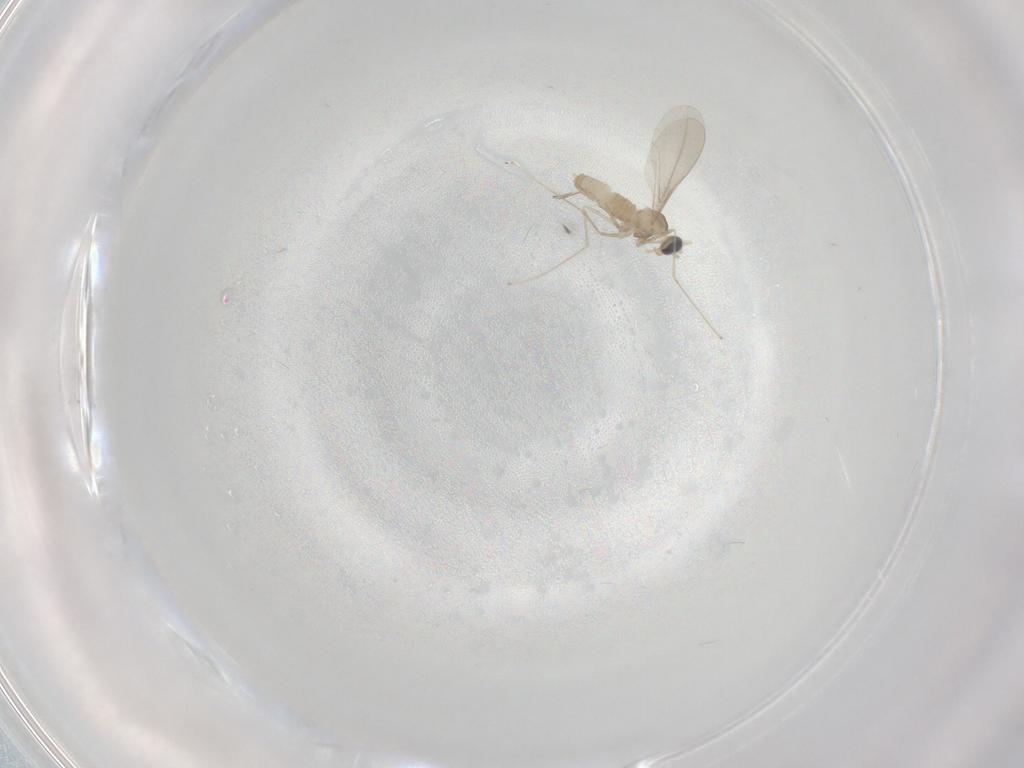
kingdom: Animalia
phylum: Arthropoda
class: Insecta
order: Diptera
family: Cecidomyiidae
